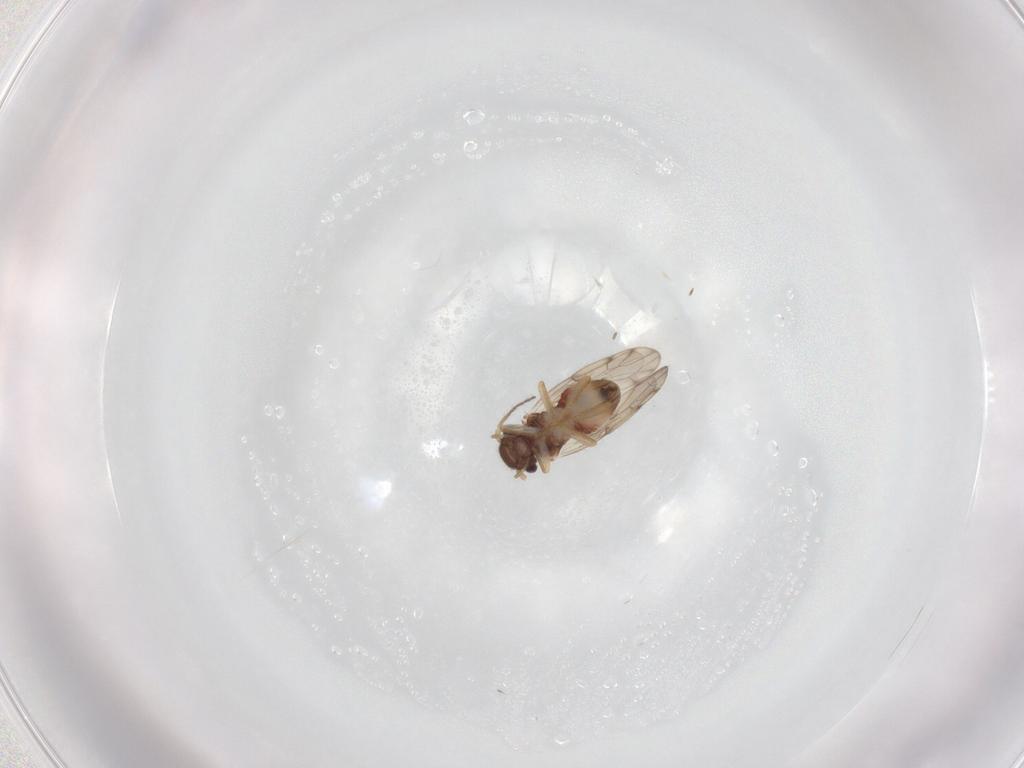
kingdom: Animalia
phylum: Arthropoda
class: Insecta
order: Psocodea
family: Peripsocidae
